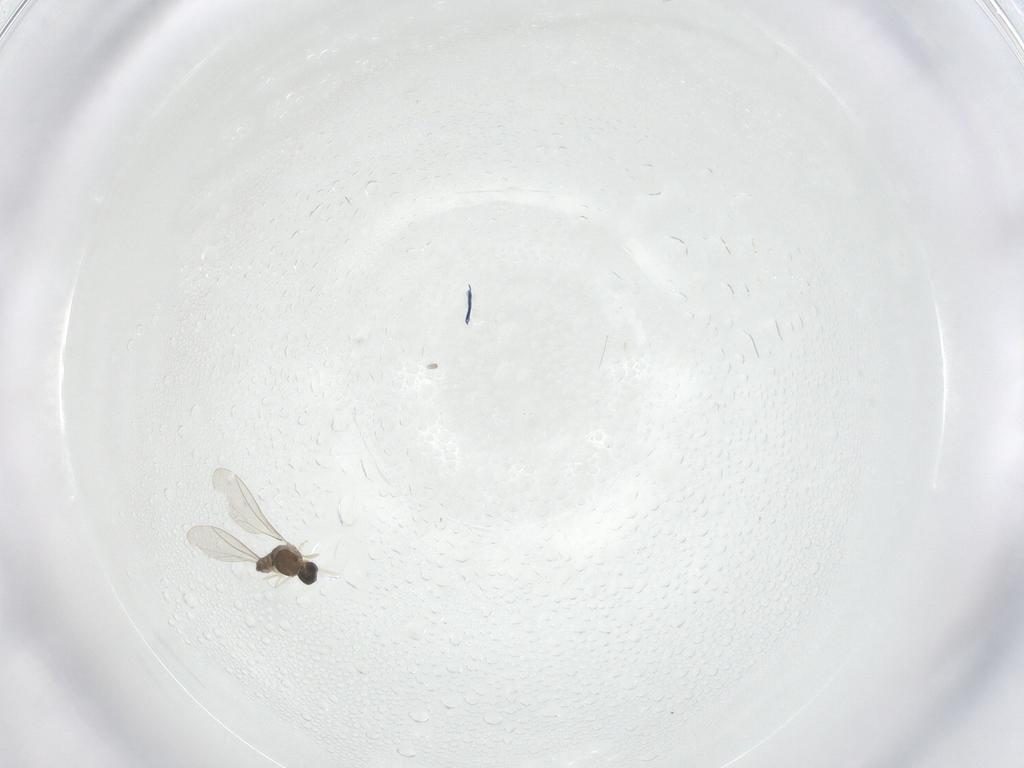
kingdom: Animalia
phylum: Arthropoda
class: Insecta
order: Diptera
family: Cecidomyiidae
